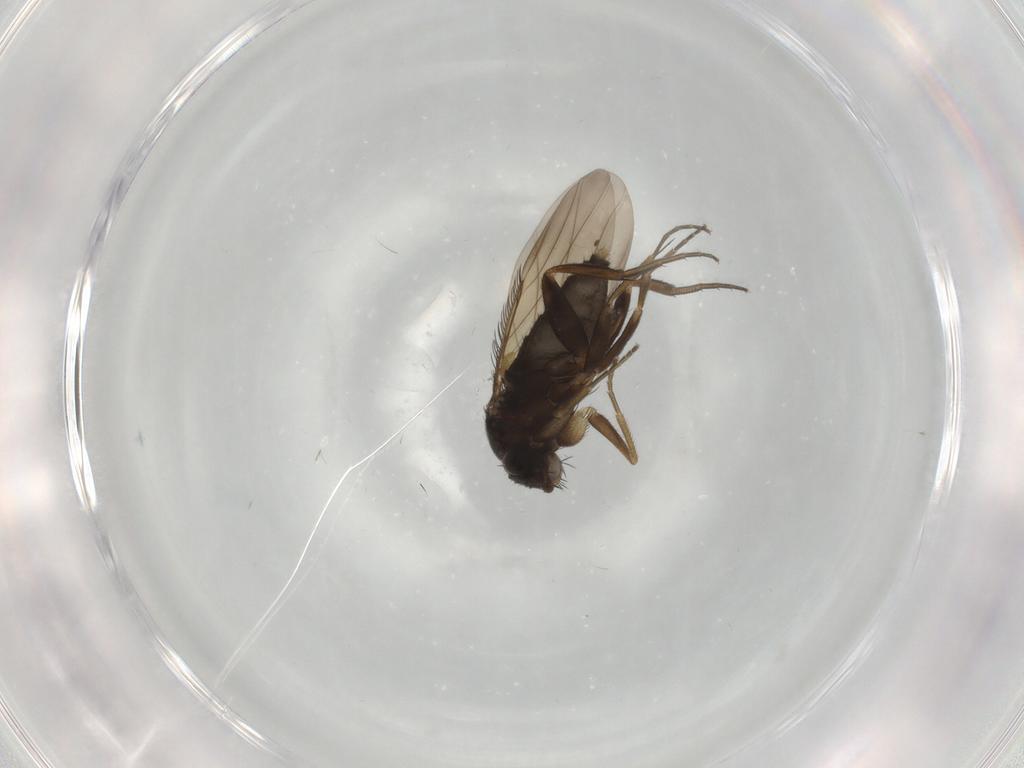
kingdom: Animalia
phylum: Arthropoda
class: Insecta
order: Diptera
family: Phoridae
